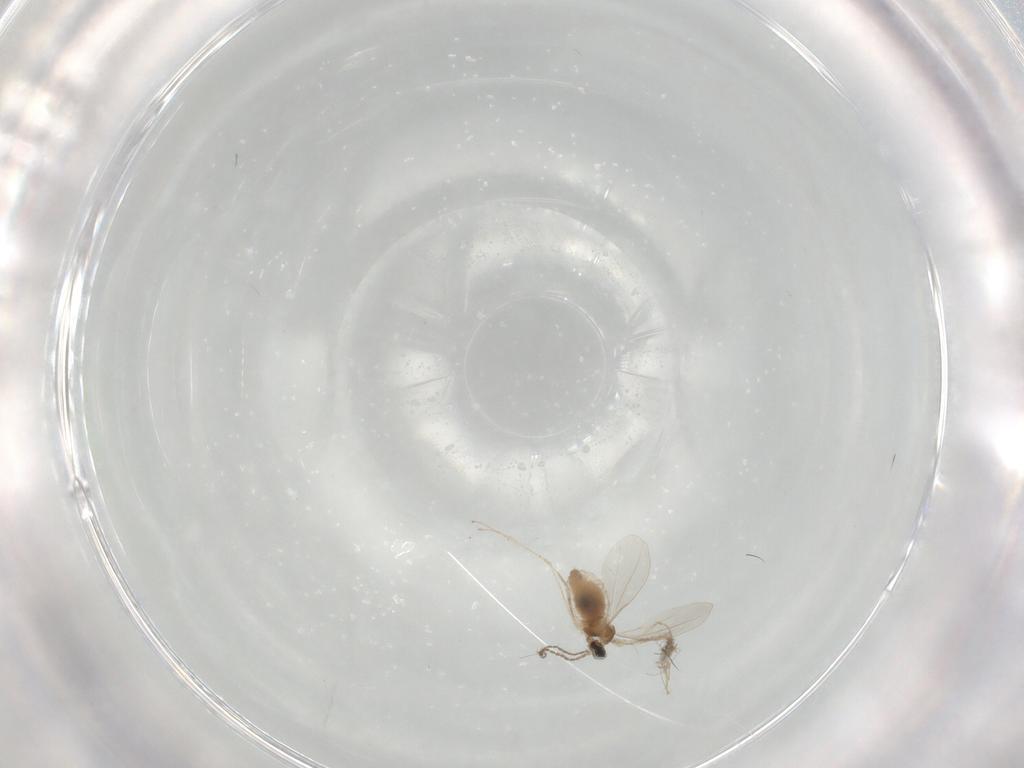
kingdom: Animalia
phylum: Arthropoda
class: Insecta
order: Diptera
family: Cecidomyiidae
